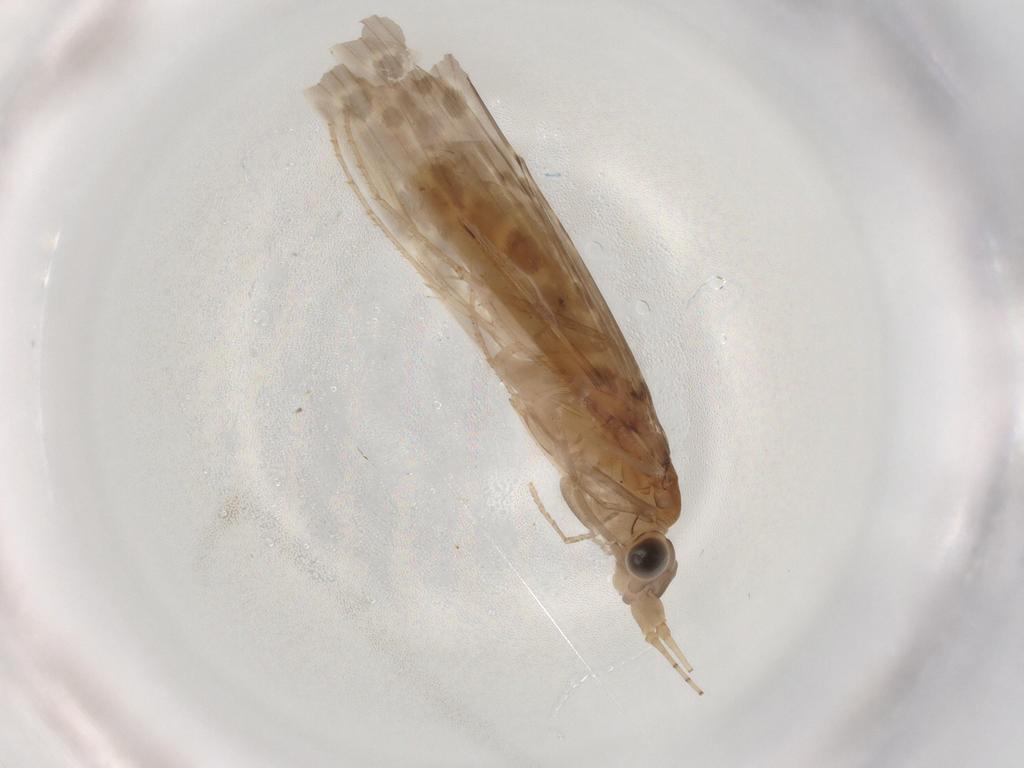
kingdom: Animalia
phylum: Arthropoda
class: Insecta
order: Trichoptera
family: Leptoceridae
